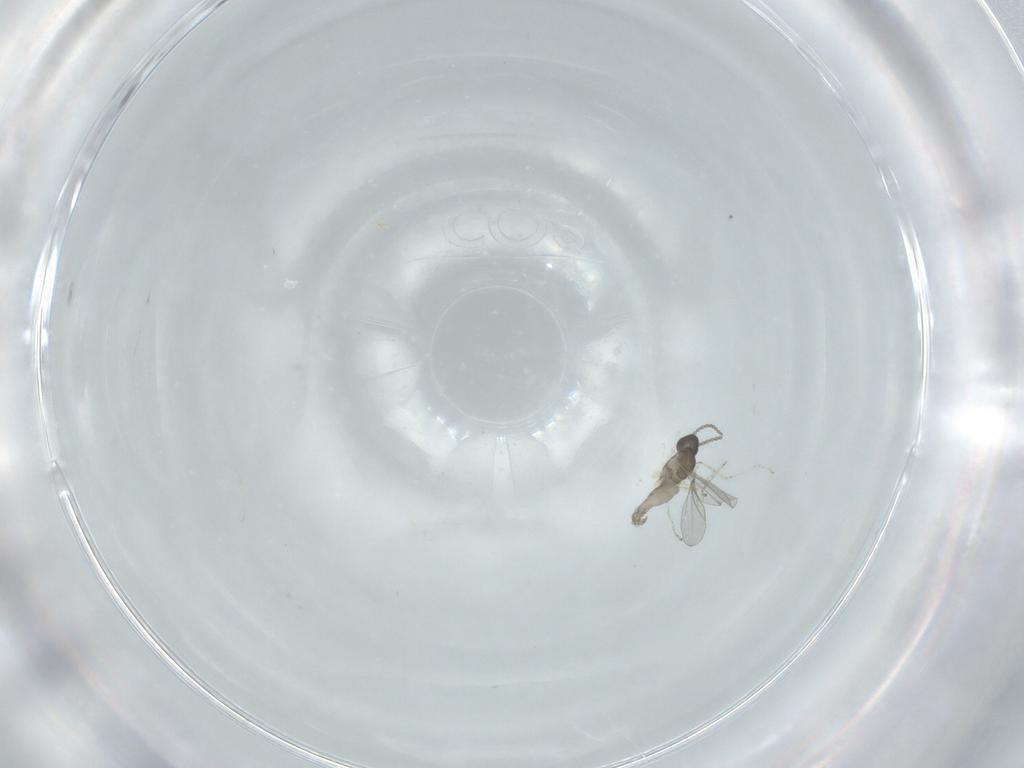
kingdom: Animalia
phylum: Arthropoda
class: Insecta
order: Diptera
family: Cecidomyiidae
